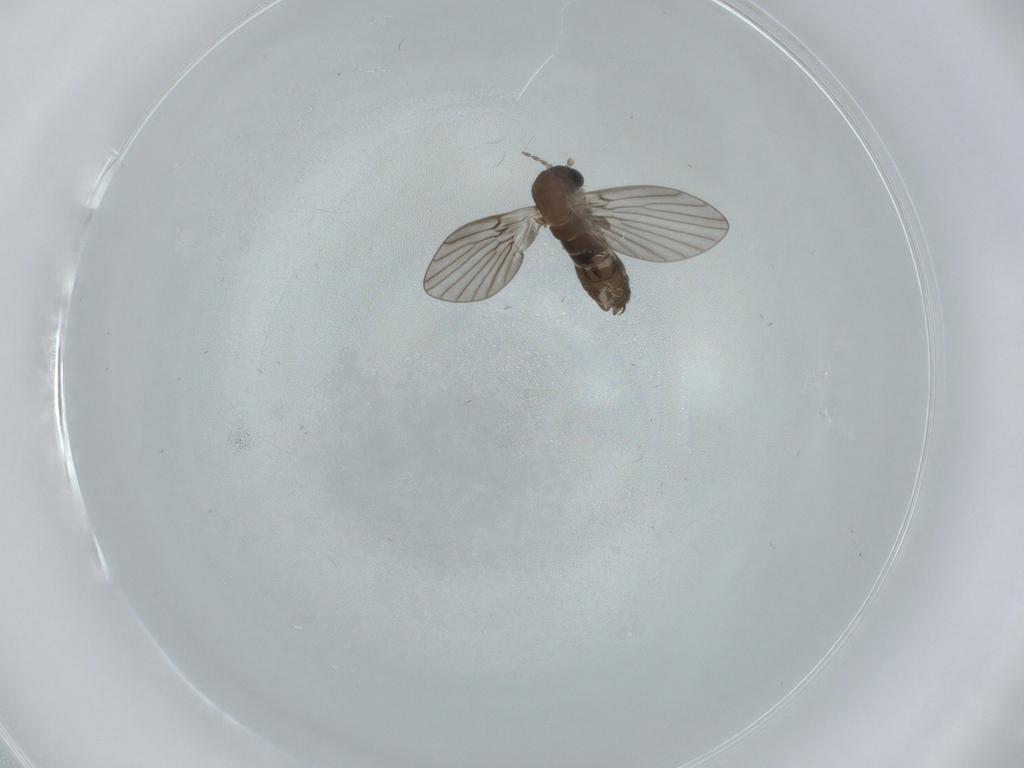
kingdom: Animalia
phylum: Arthropoda
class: Insecta
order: Diptera
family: Psychodidae
